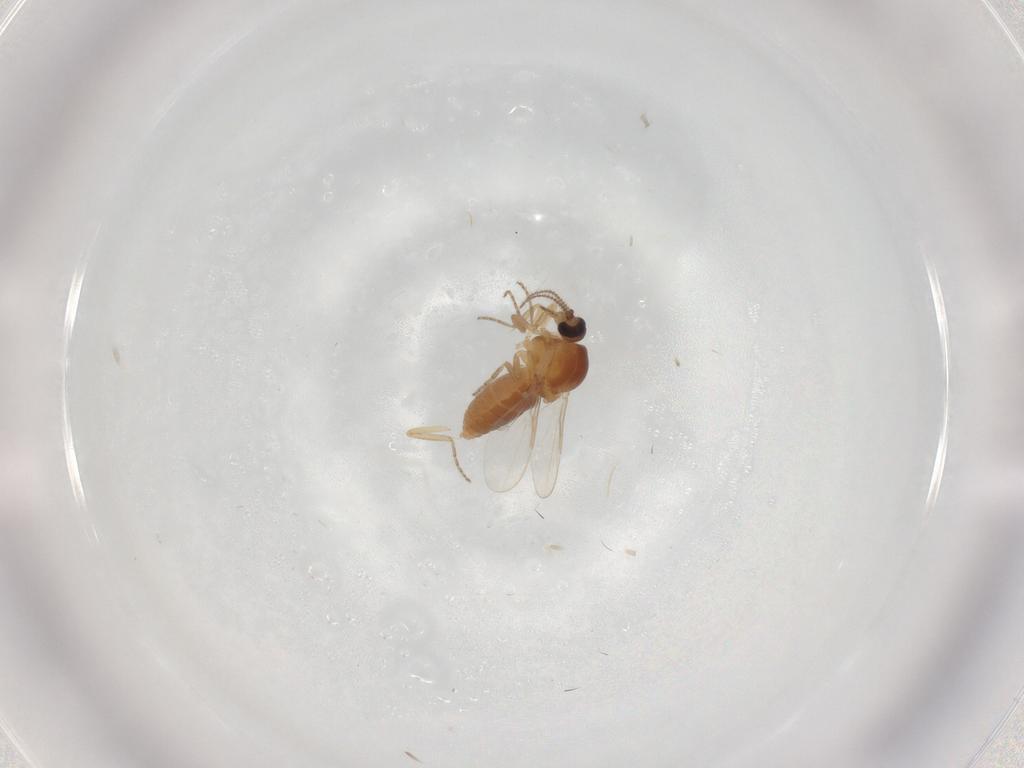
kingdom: Animalia
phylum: Arthropoda
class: Insecta
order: Diptera
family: Ceratopogonidae
